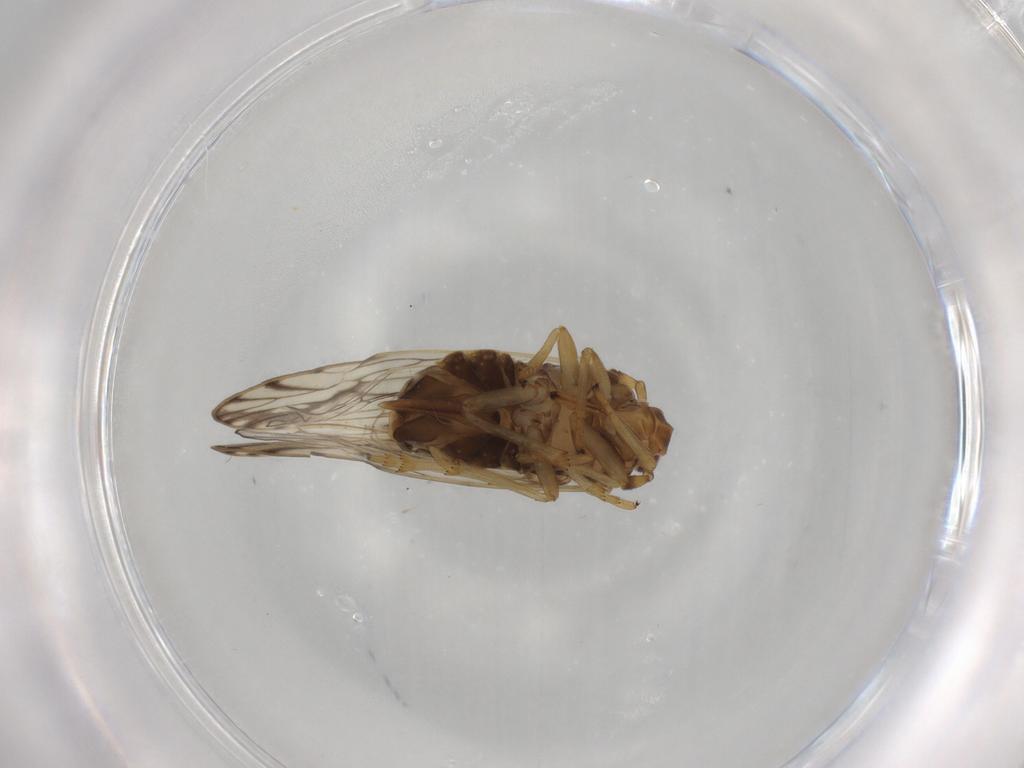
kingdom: Animalia
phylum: Arthropoda
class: Insecta
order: Hemiptera
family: Delphacidae
